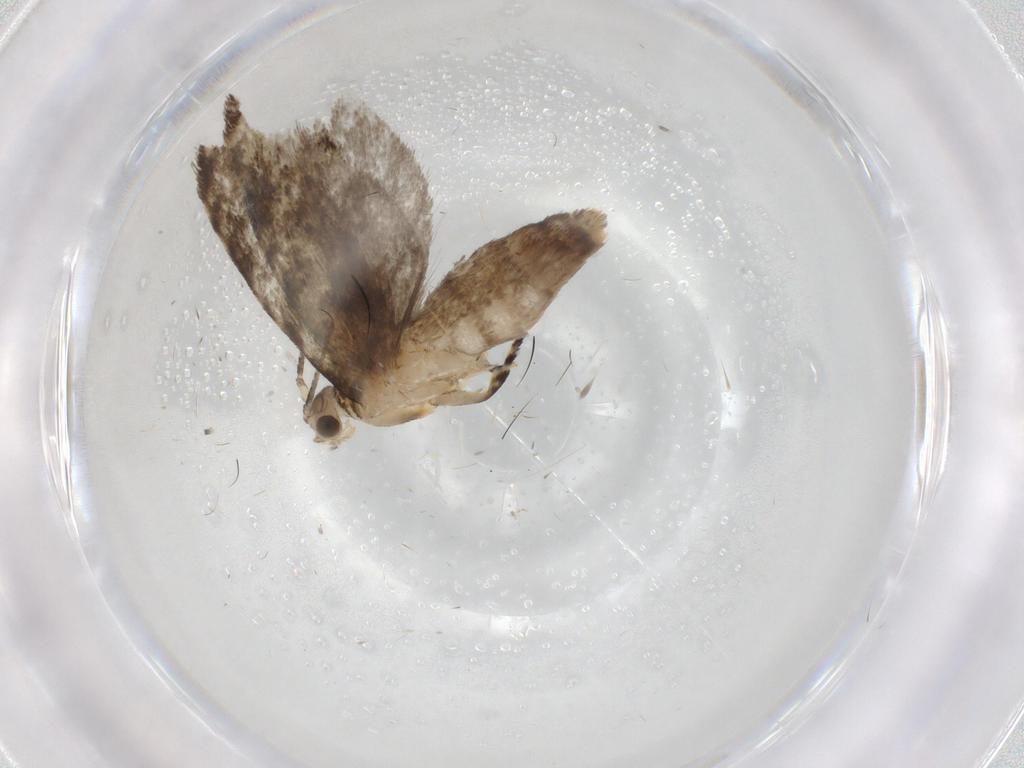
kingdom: Animalia
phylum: Arthropoda
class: Insecta
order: Lepidoptera
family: Tineidae
